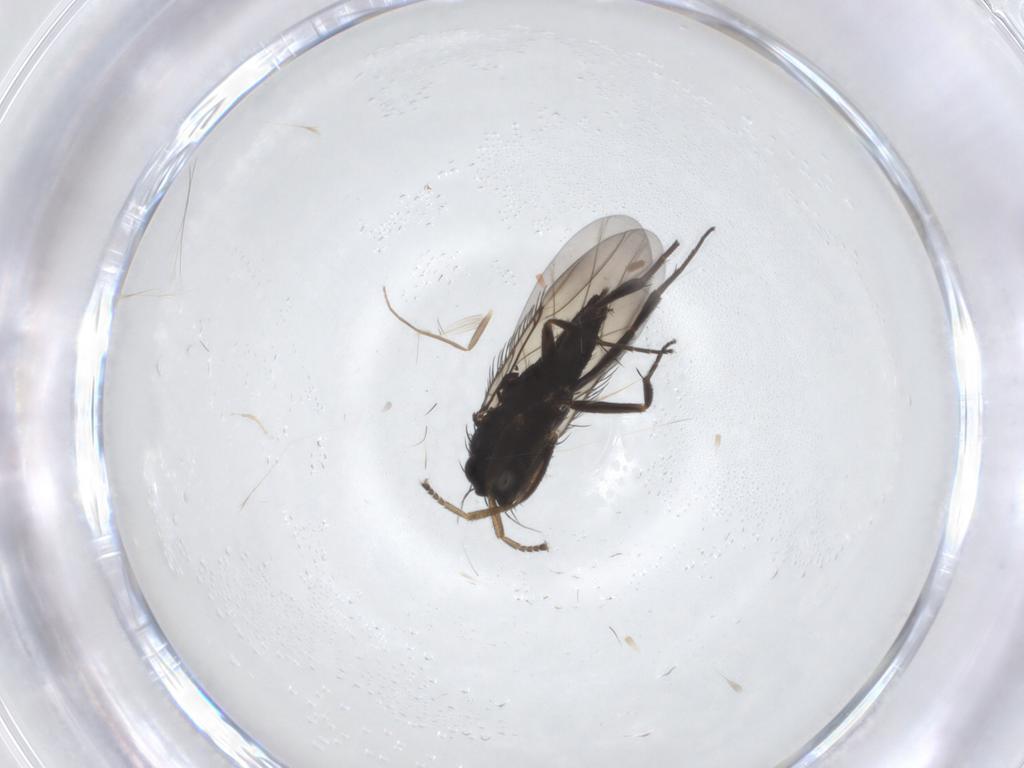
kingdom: Animalia
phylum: Arthropoda
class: Insecta
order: Diptera
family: Phoridae
